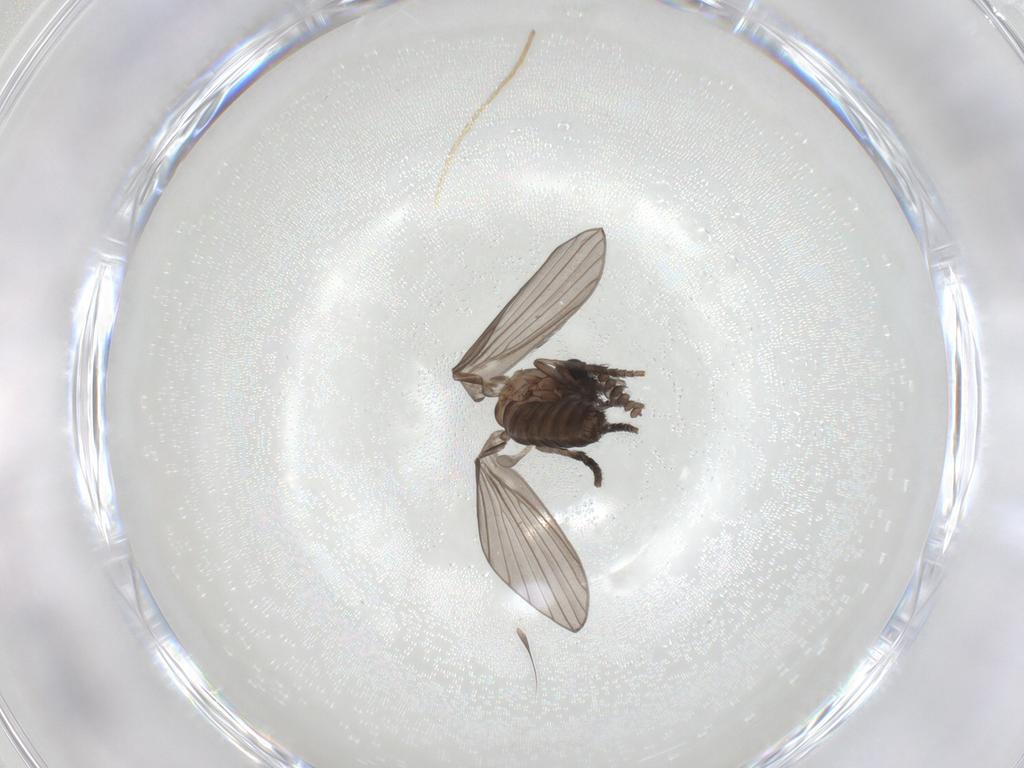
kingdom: Animalia
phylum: Arthropoda
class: Insecta
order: Diptera
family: Psychodidae
